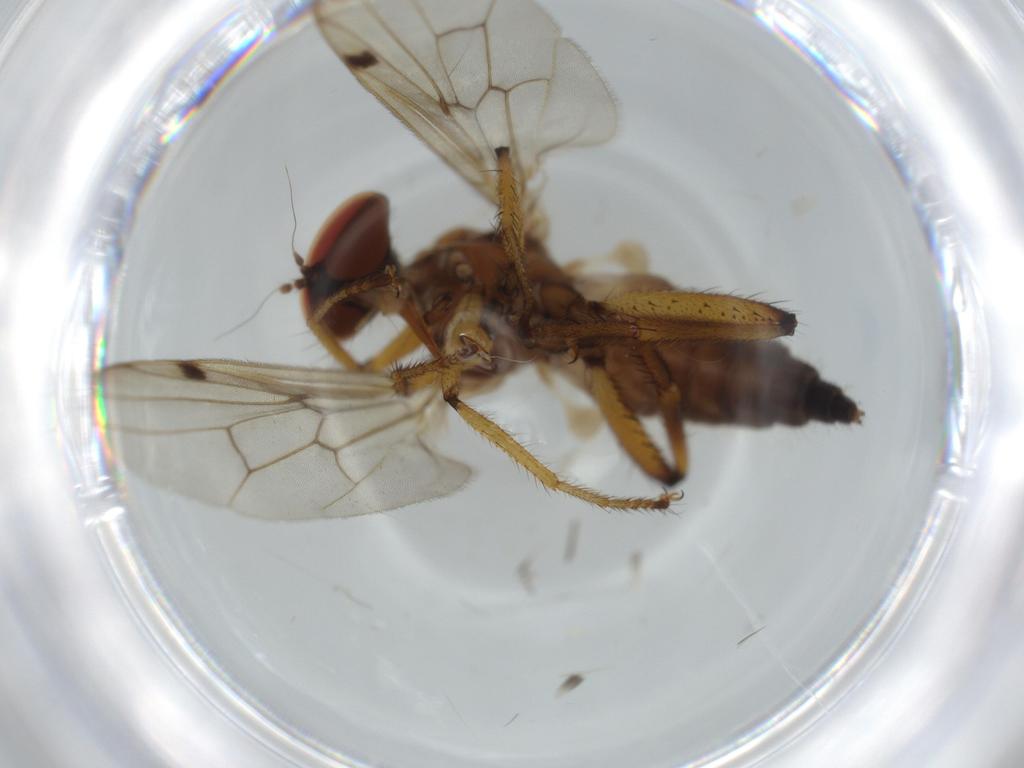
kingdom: Animalia
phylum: Arthropoda
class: Insecta
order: Diptera
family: Hybotidae
